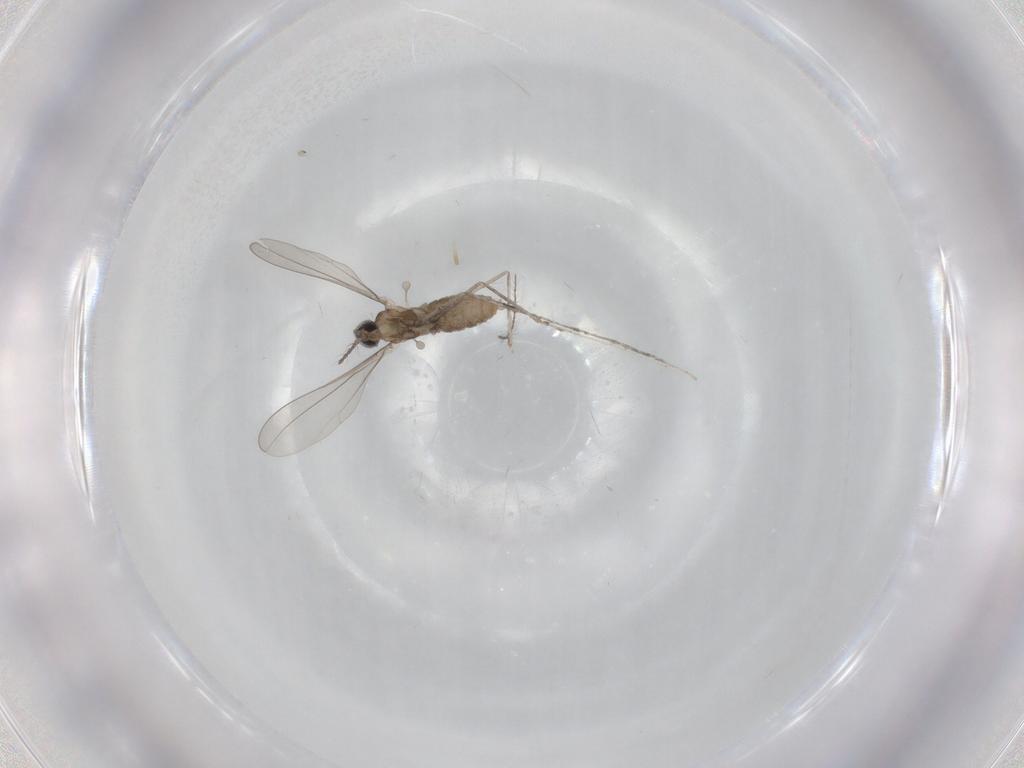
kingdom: Animalia
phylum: Arthropoda
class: Insecta
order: Diptera
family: Cecidomyiidae
